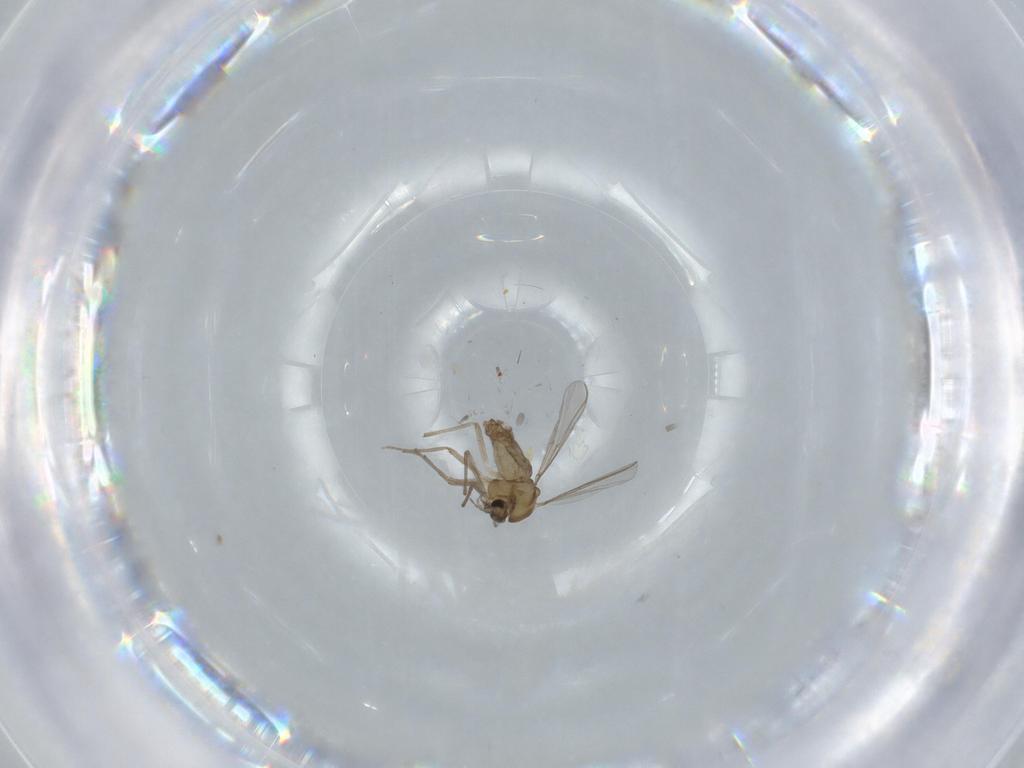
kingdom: Animalia
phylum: Arthropoda
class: Insecta
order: Diptera
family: Chironomidae
